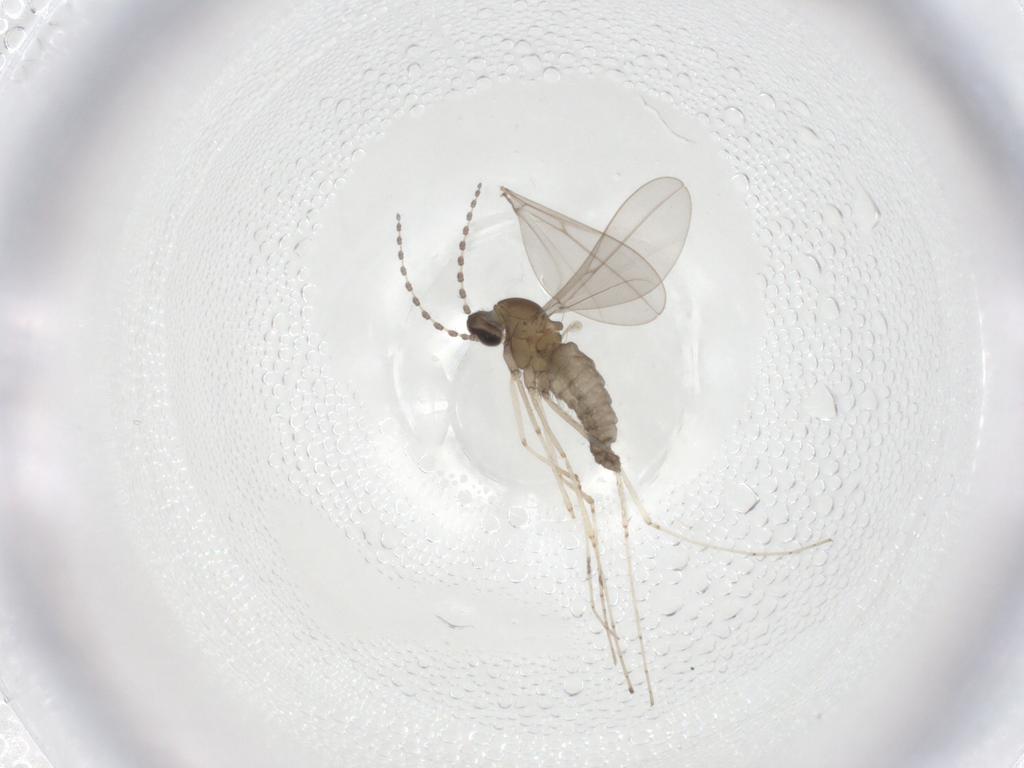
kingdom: Animalia
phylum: Arthropoda
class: Insecta
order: Diptera
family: Cecidomyiidae
